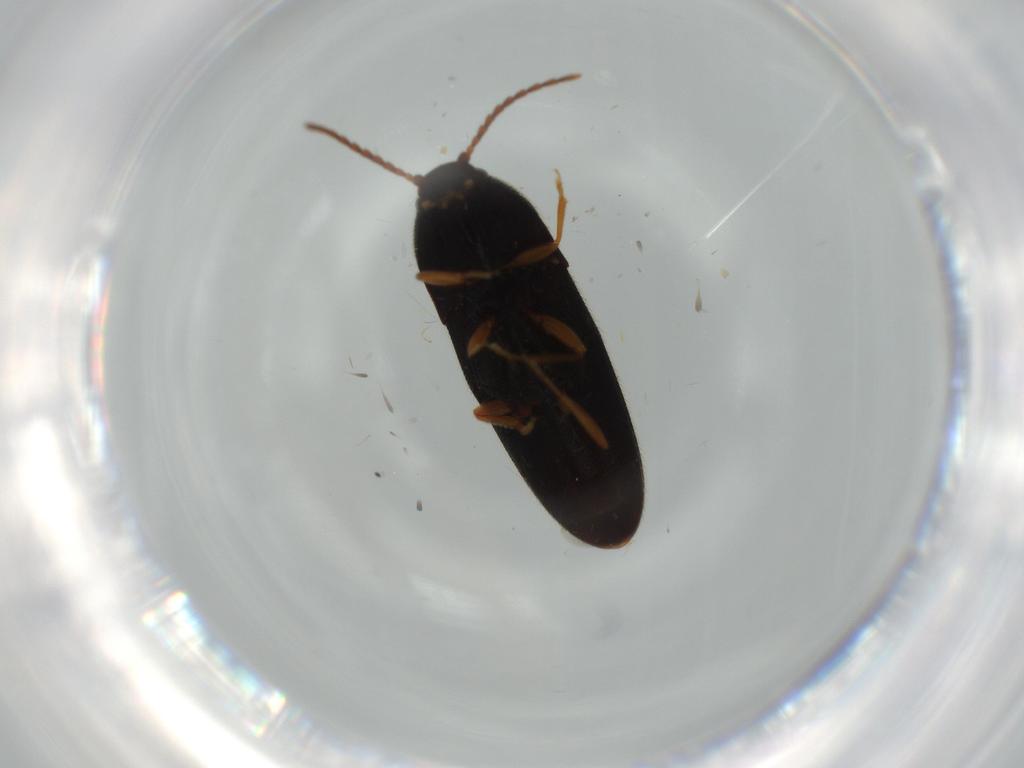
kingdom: Animalia
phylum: Arthropoda
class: Insecta
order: Coleoptera
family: Elateridae
